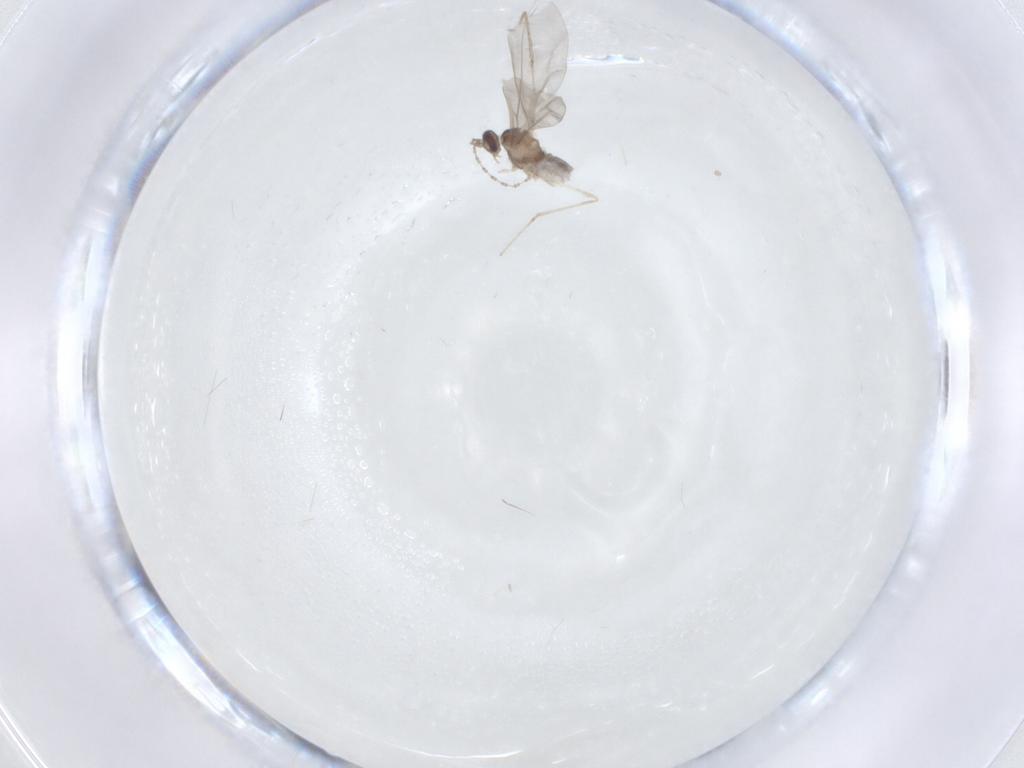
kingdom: Animalia
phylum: Arthropoda
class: Insecta
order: Diptera
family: Cecidomyiidae
